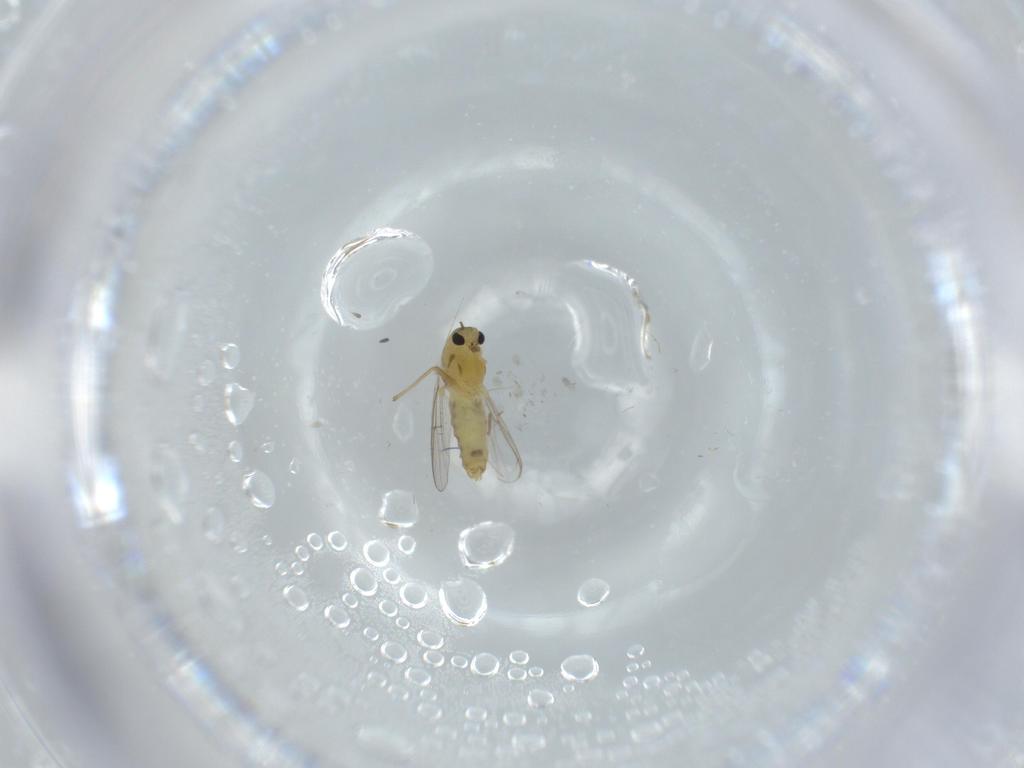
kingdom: Animalia
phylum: Arthropoda
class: Insecta
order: Diptera
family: Chironomidae
